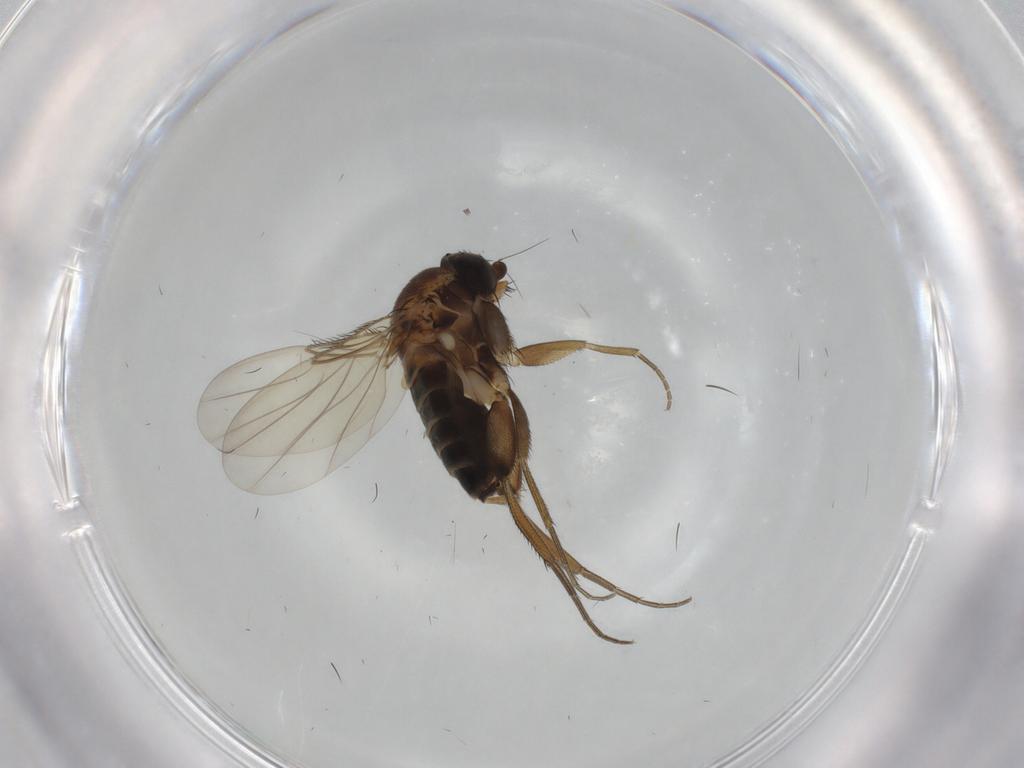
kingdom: Animalia
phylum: Arthropoda
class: Insecta
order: Diptera
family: Phoridae
